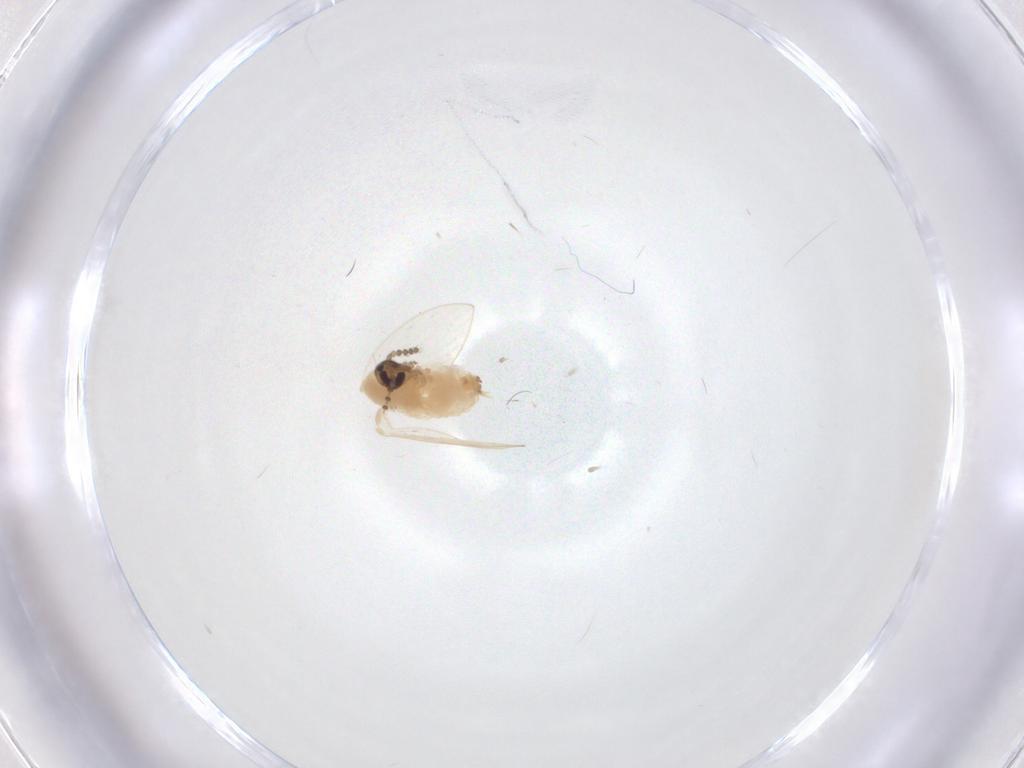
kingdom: Animalia
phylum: Arthropoda
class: Insecta
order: Diptera
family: Psychodidae
